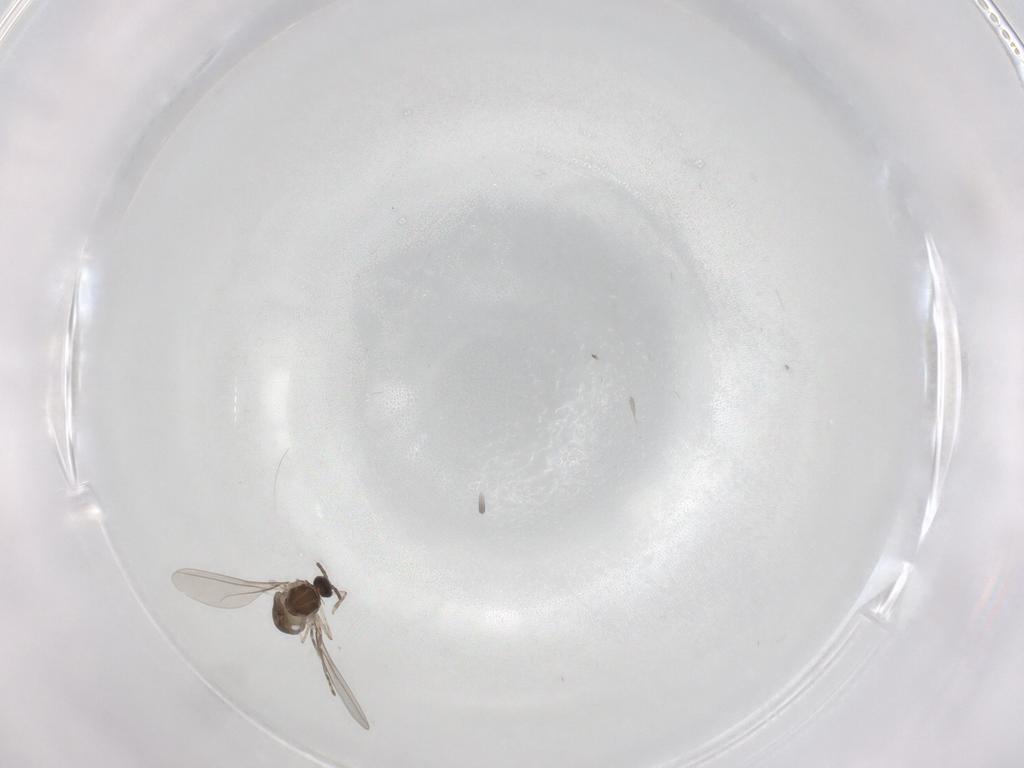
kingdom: Animalia
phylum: Arthropoda
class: Insecta
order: Diptera
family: Cecidomyiidae
